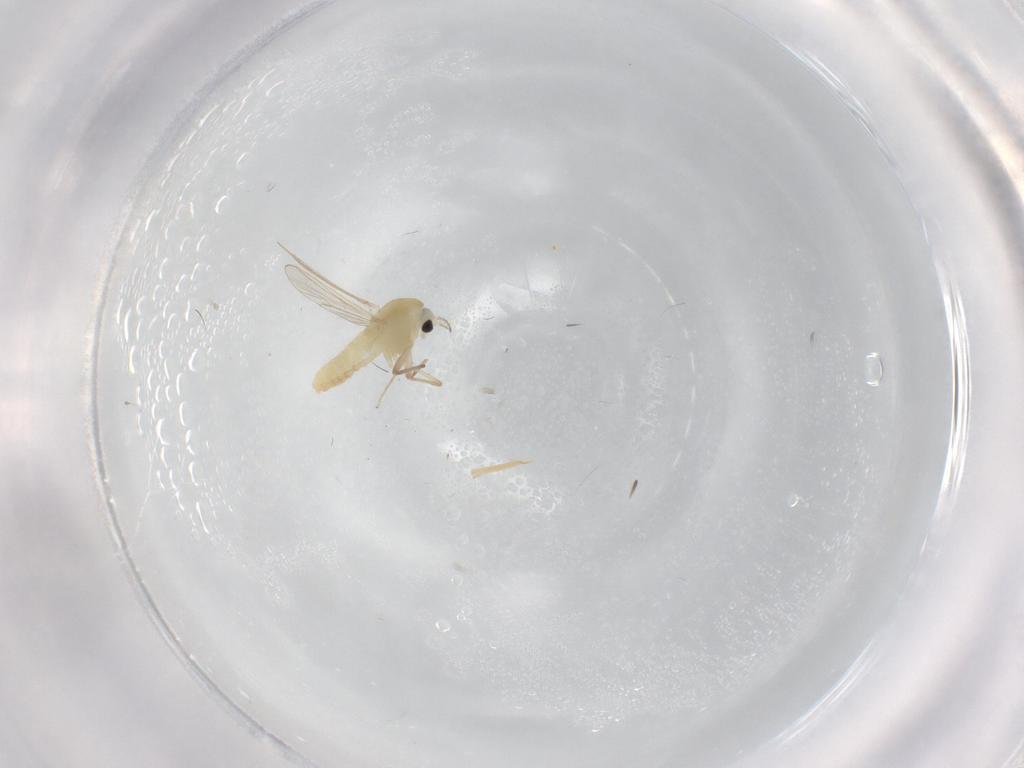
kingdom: Animalia
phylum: Arthropoda
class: Insecta
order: Diptera
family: Chironomidae
